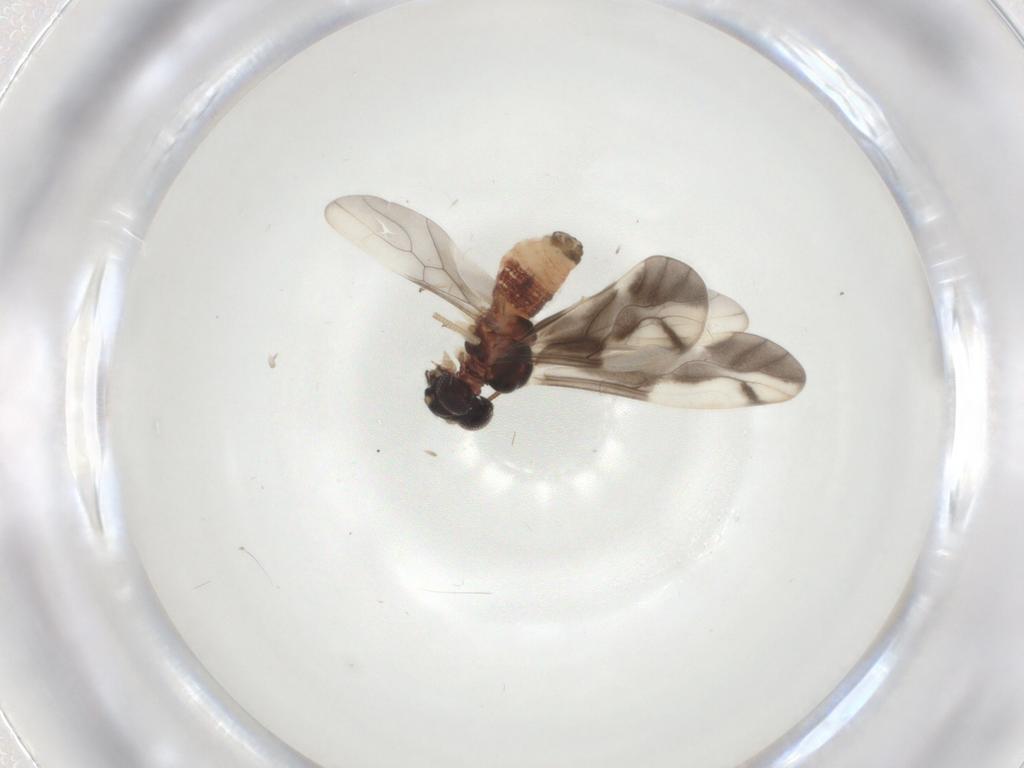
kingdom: Animalia
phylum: Arthropoda
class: Insecta
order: Psocodea
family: Caeciliusidae
